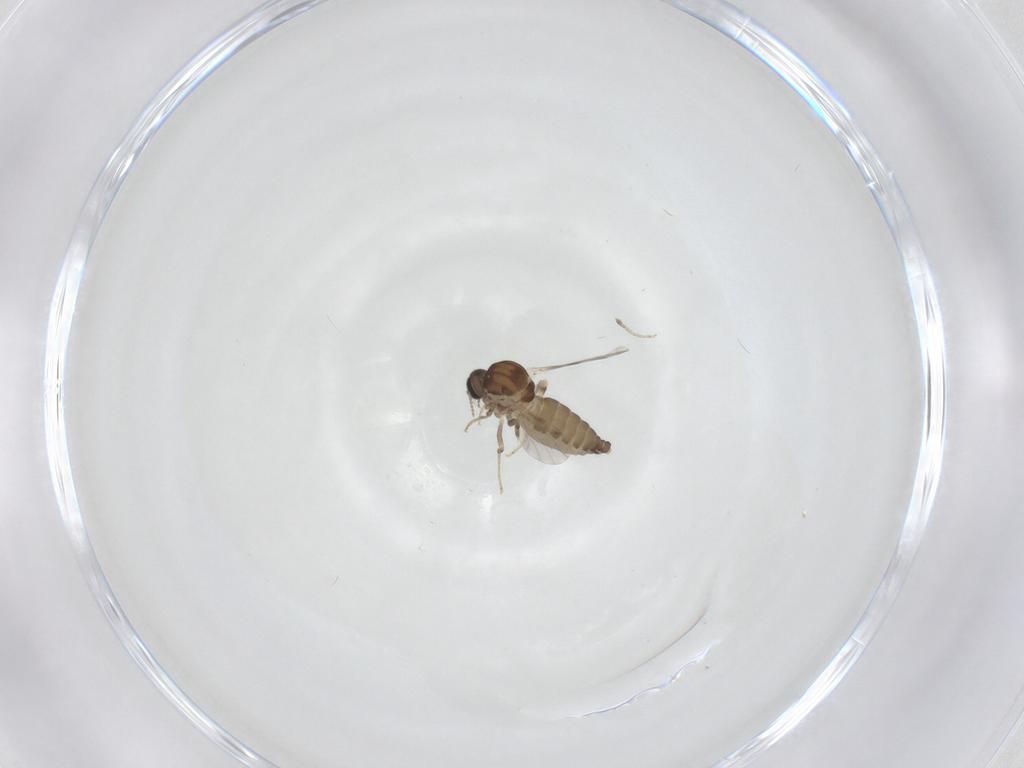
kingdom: Animalia
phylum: Arthropoda
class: Insecta
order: Diptera
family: Ceratopogonidae
